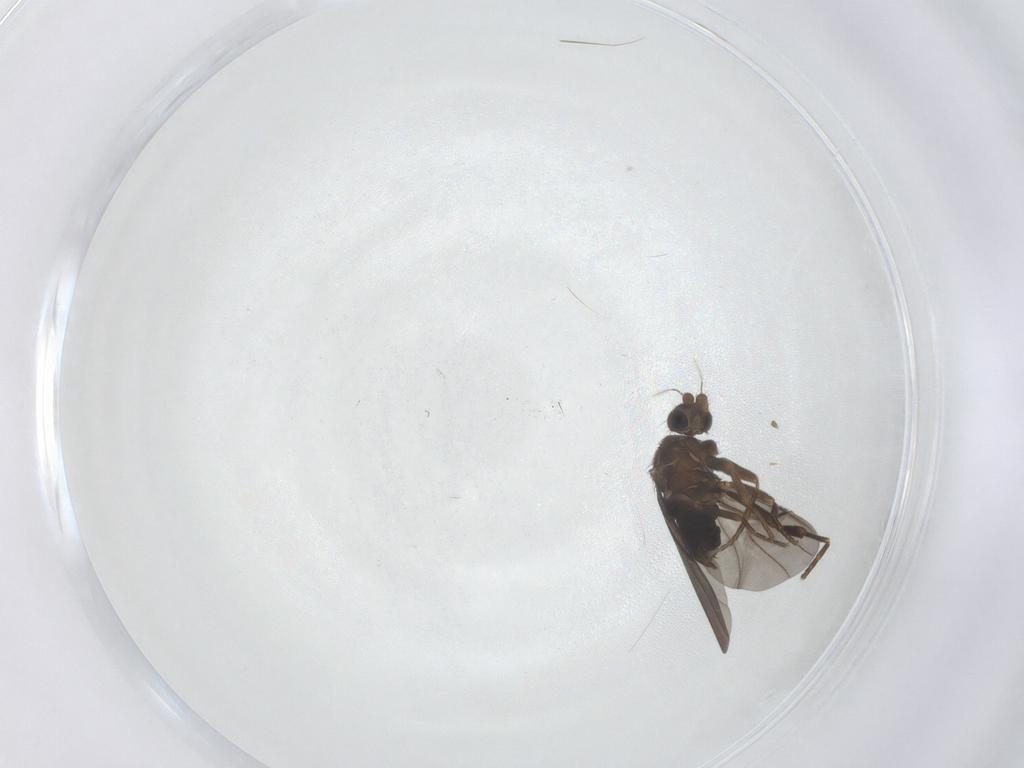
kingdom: Animalia
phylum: Arthropoda
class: Insecta
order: Diptera
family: Phoridae
